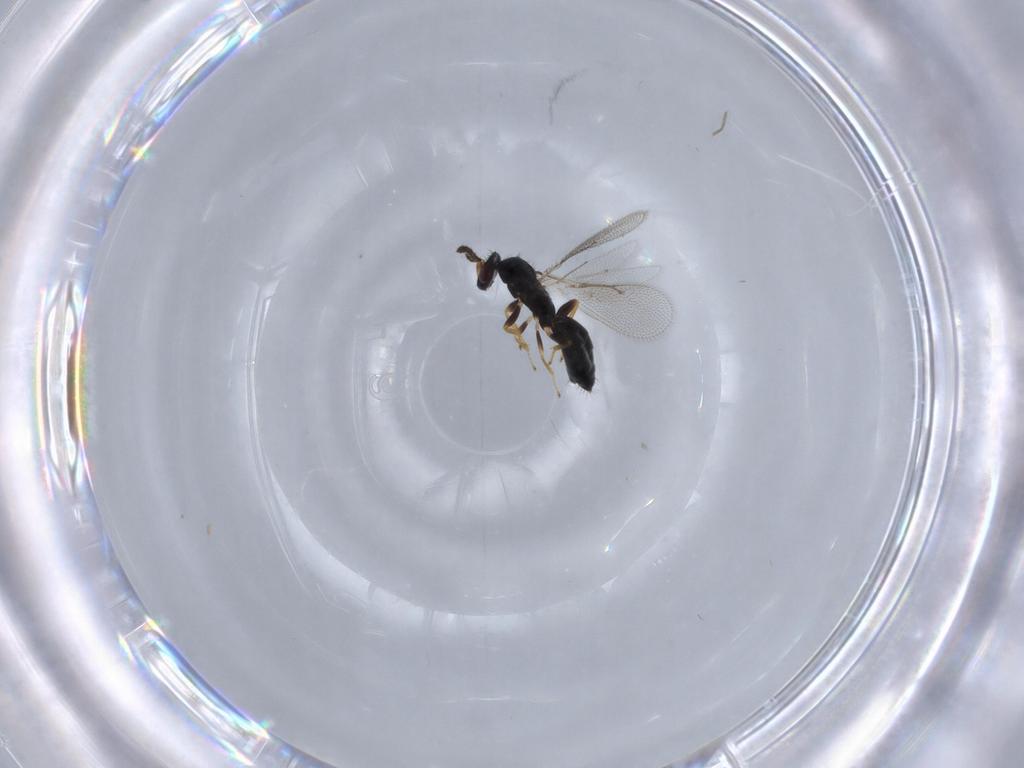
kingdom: Animalia
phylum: Arthropoda
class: Insecta
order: Hymenoptera
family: Eulophidae
